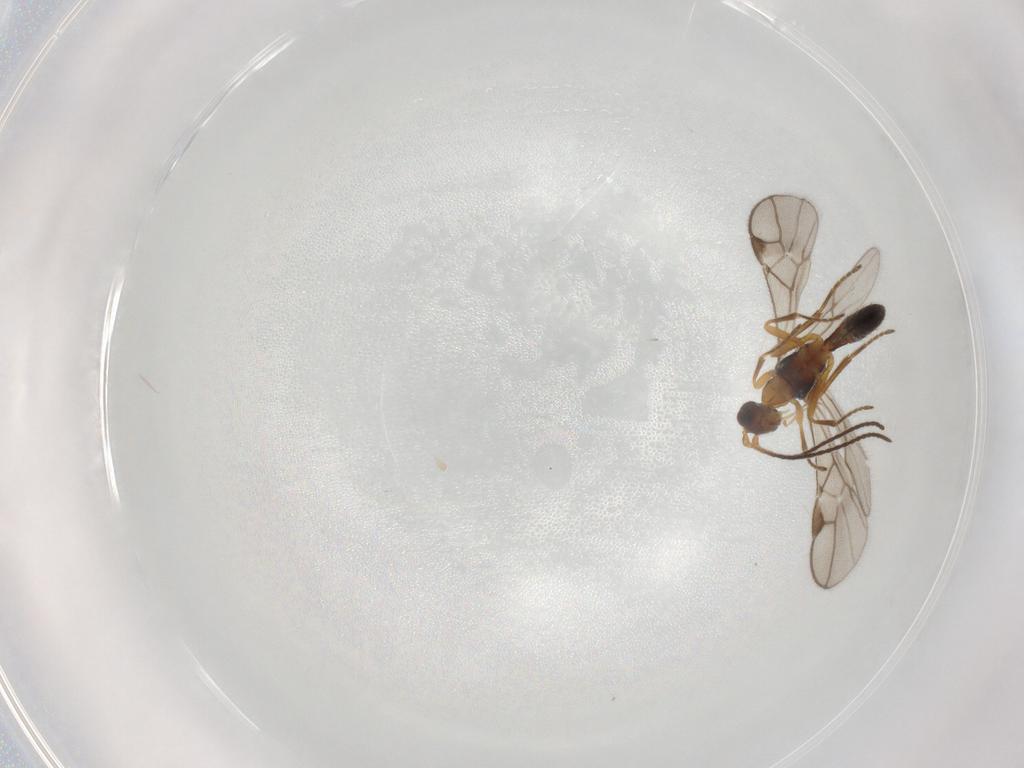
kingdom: Animalia
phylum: Arthropoda
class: Insecta
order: Hymenoptera
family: Braconidae
